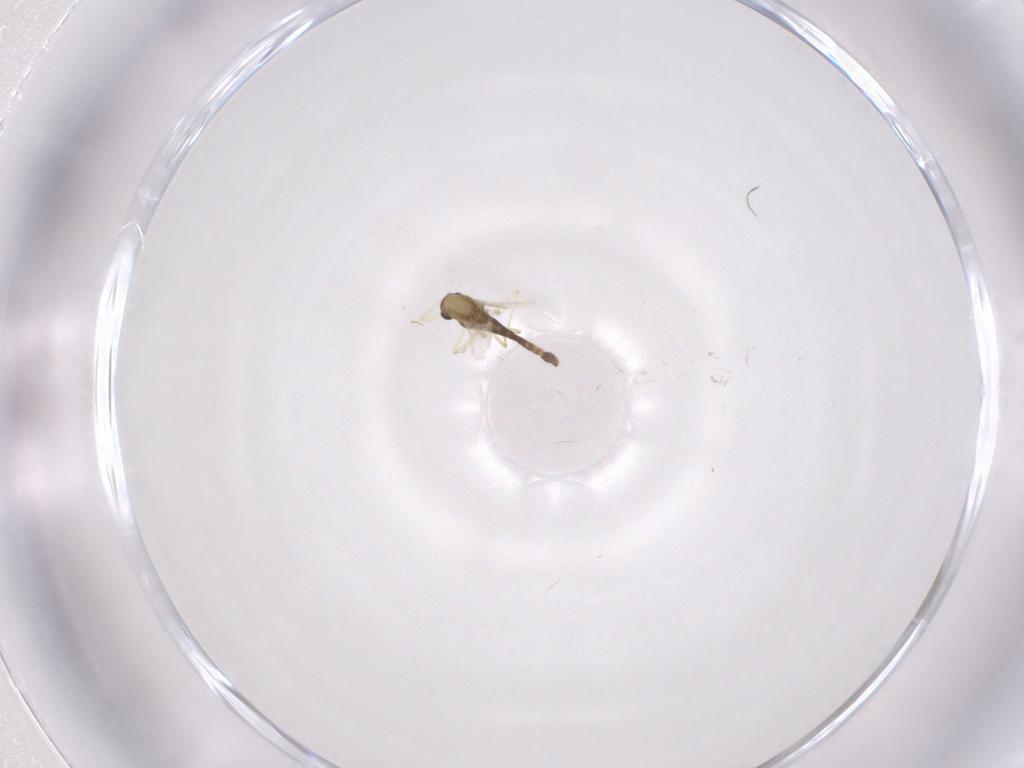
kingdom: Animalia
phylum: Arthropoda
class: Insecta
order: Diptera
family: Chironomidae
